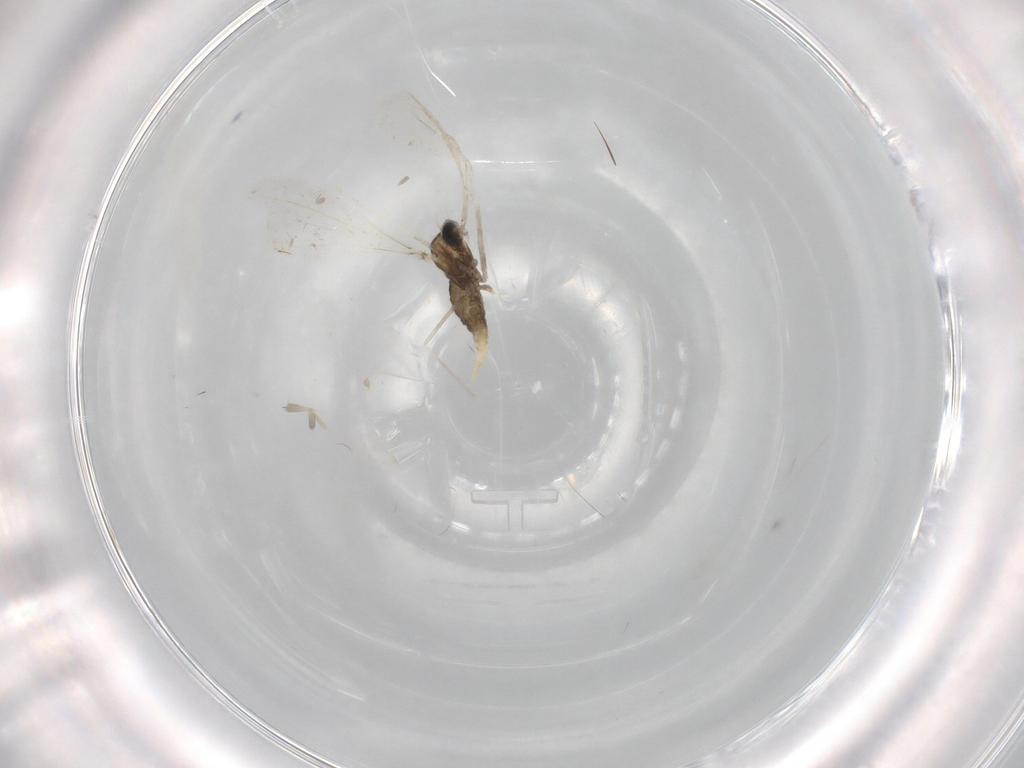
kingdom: Animalia
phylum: Arthropoda
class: Insecta
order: Diptera
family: Cecidomyiidae
